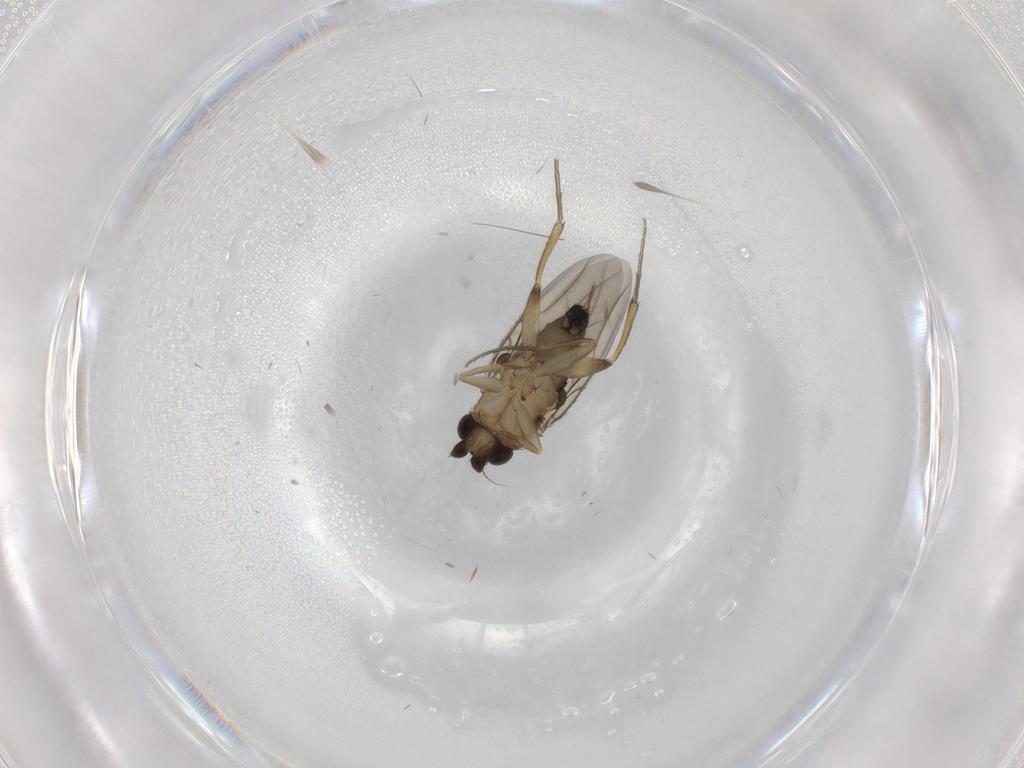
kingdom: Animalia
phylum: Arthropoda
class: Insecta
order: Diptera
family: Phoridae
